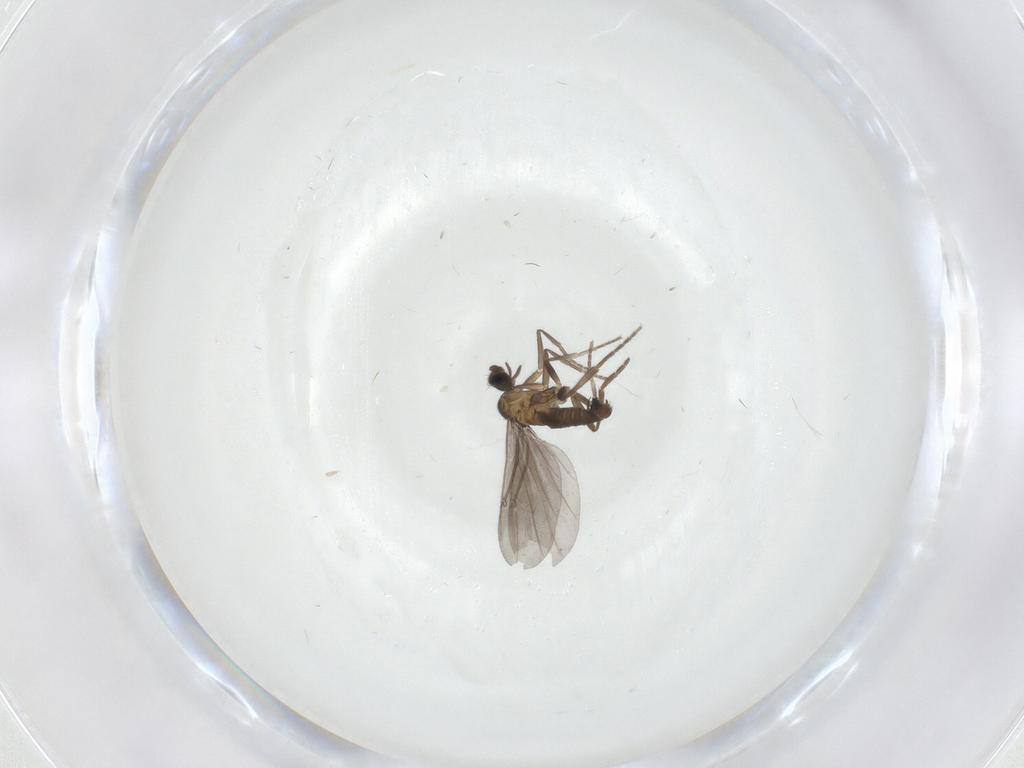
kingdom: Animalia
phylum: Arthropoda
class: Insecta
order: Diptera
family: Phoridae
